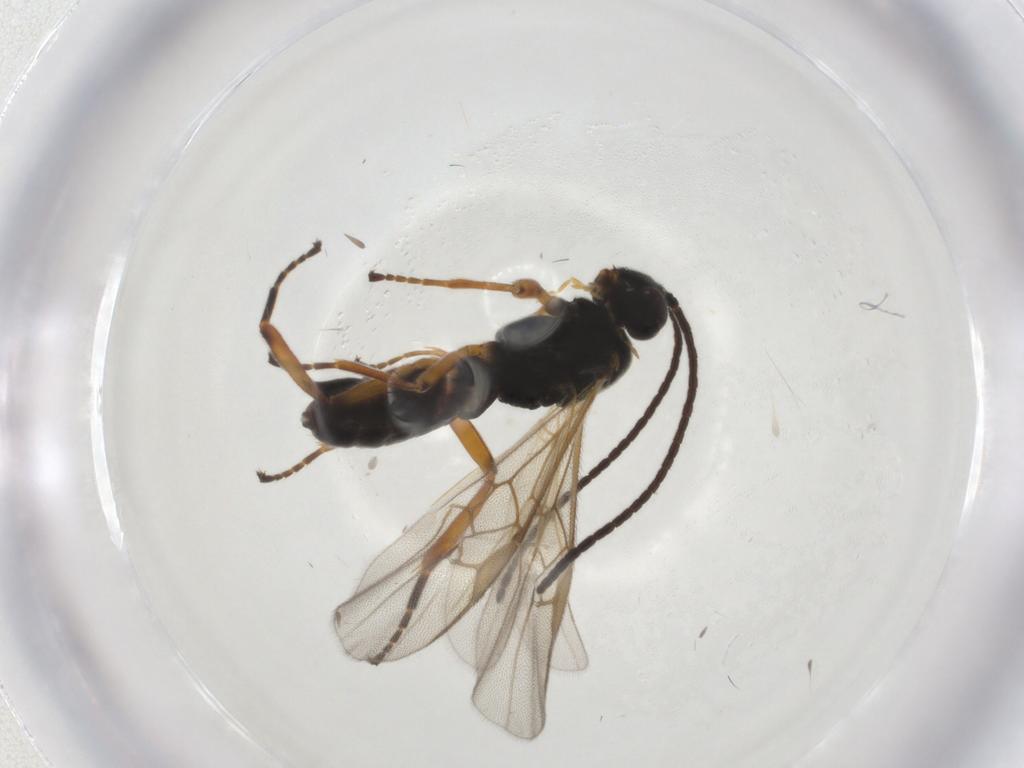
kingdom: Animalia
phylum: Arthropoda
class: Insecta
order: Hymenoptera
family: Braconidae
